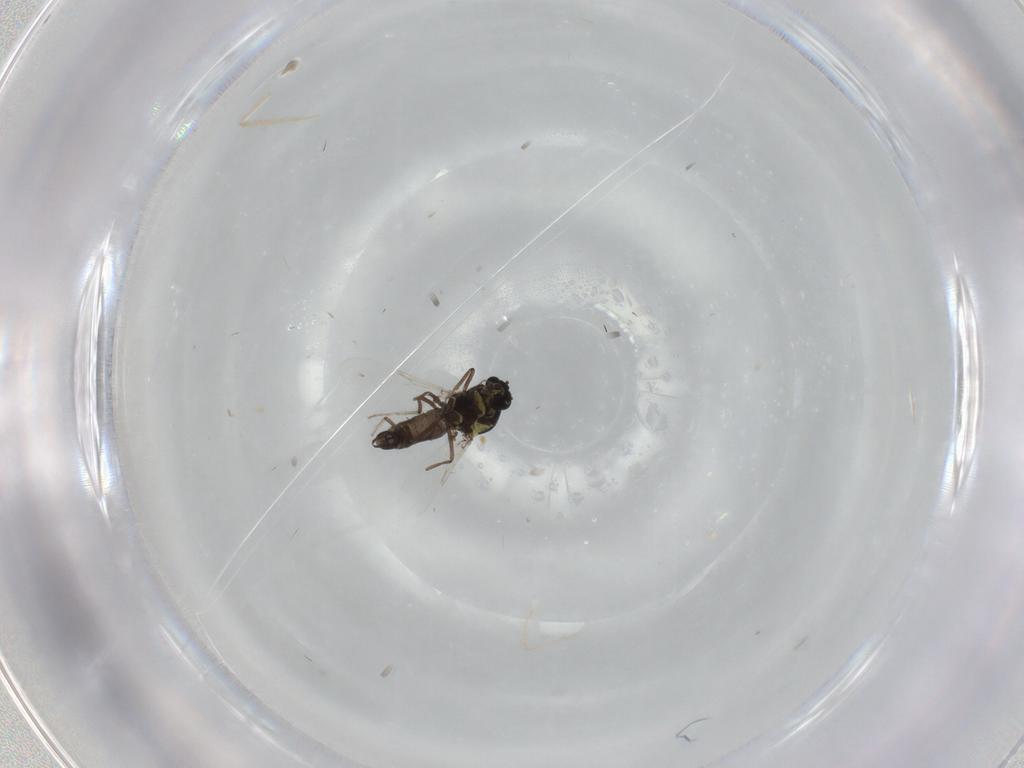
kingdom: Animalia
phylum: Arthropoda
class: Insecta
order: Diptera
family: Ceratopogonidae
